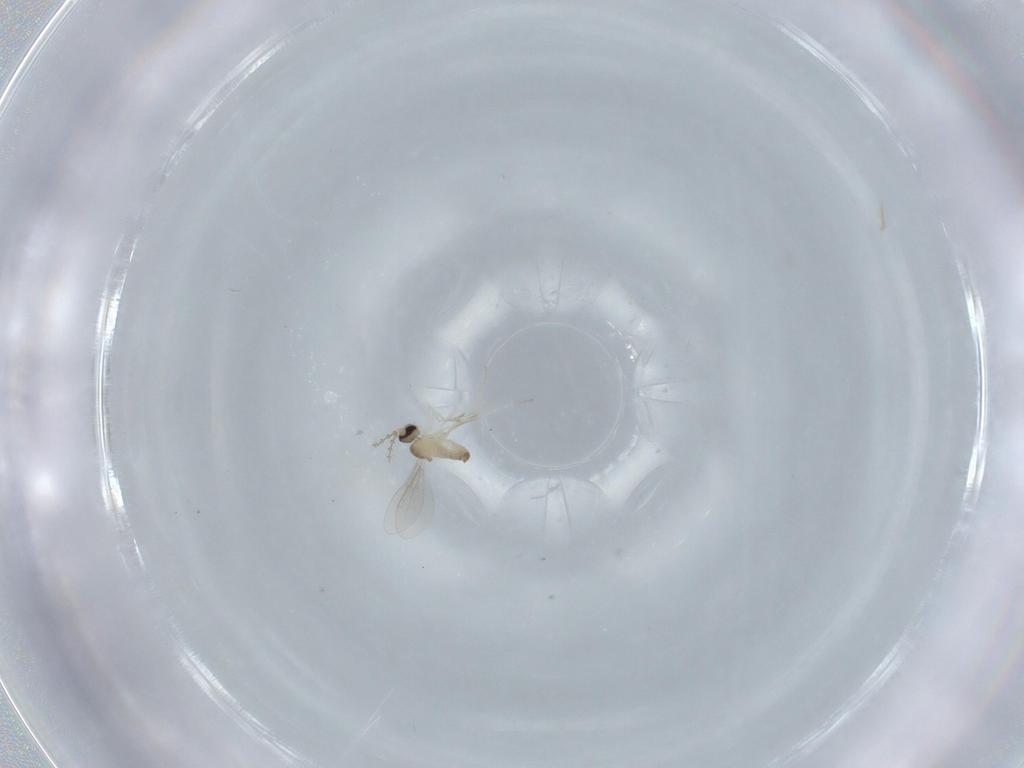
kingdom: Animalia
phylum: Arthropoda
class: Insecta
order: Diptera
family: Cecidomyiidae
